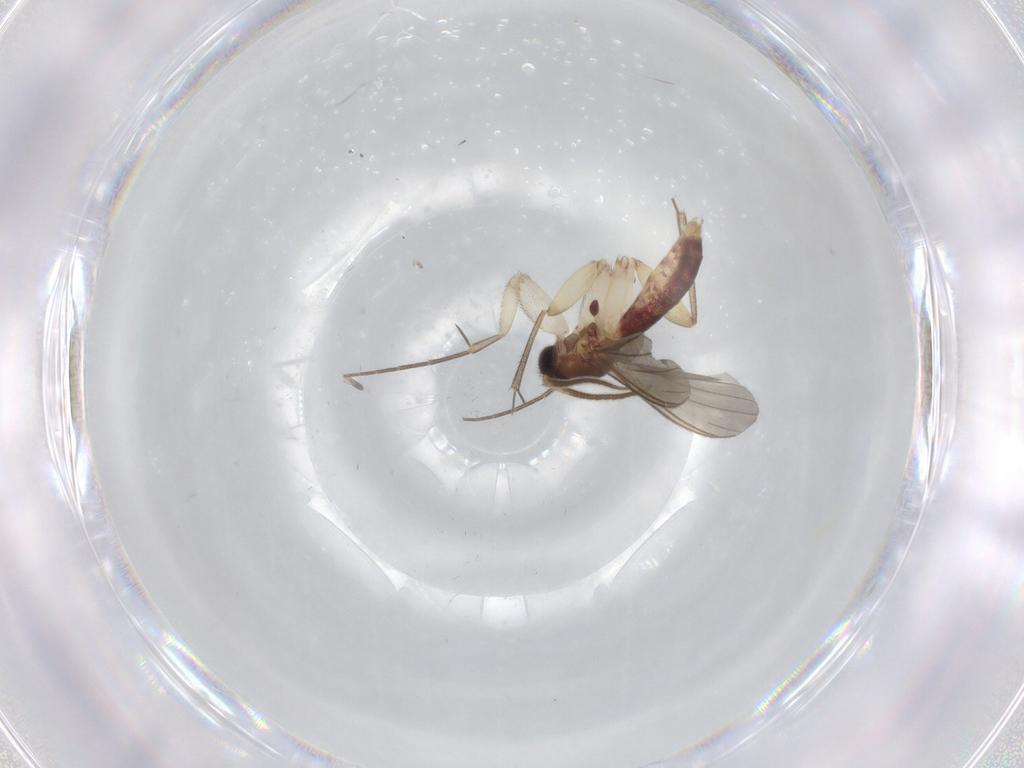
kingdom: Animalia
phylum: Arthropoda
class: Insecta
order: Diptera
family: Mycetophilidae
